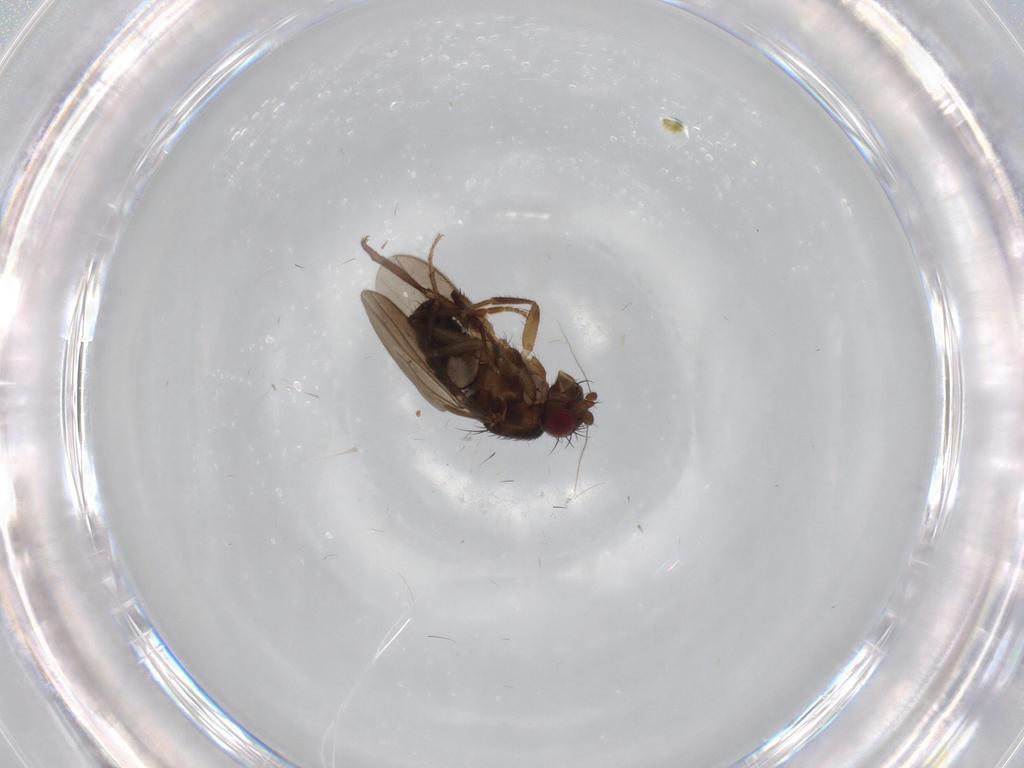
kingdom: Animalia
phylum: Arthropoda
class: Insecta
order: Diptera
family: Sphaeroceridae
